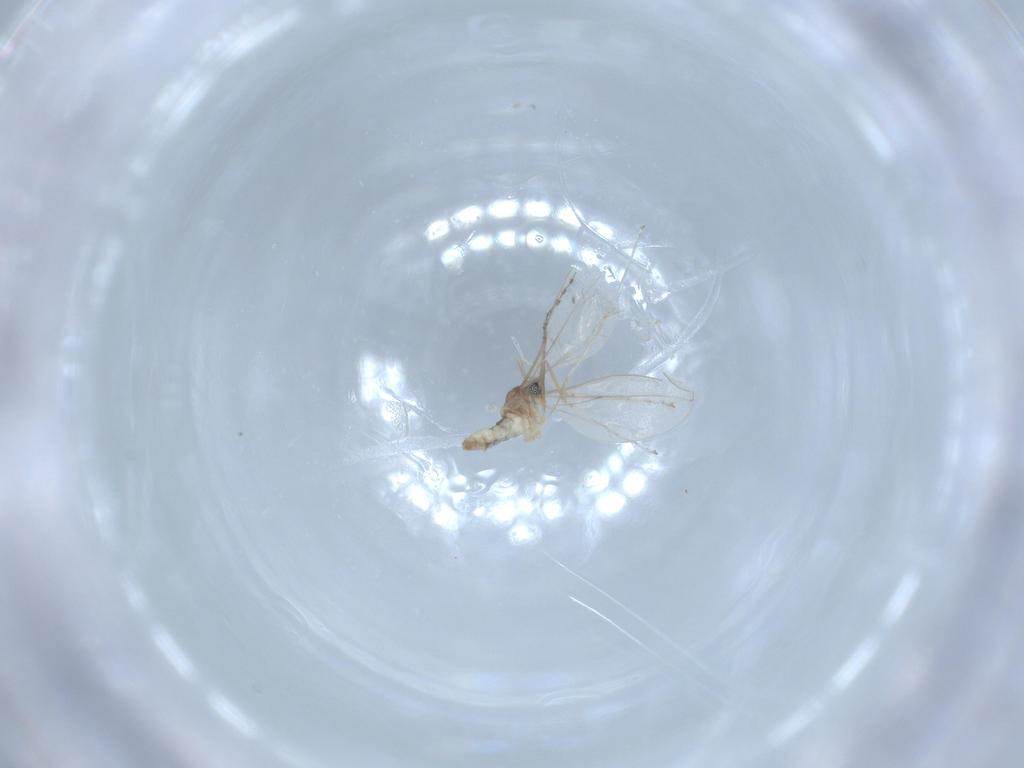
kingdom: Animalia
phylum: Arthropoda
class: Insecta
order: Diptera
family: Cecidomyiidae
